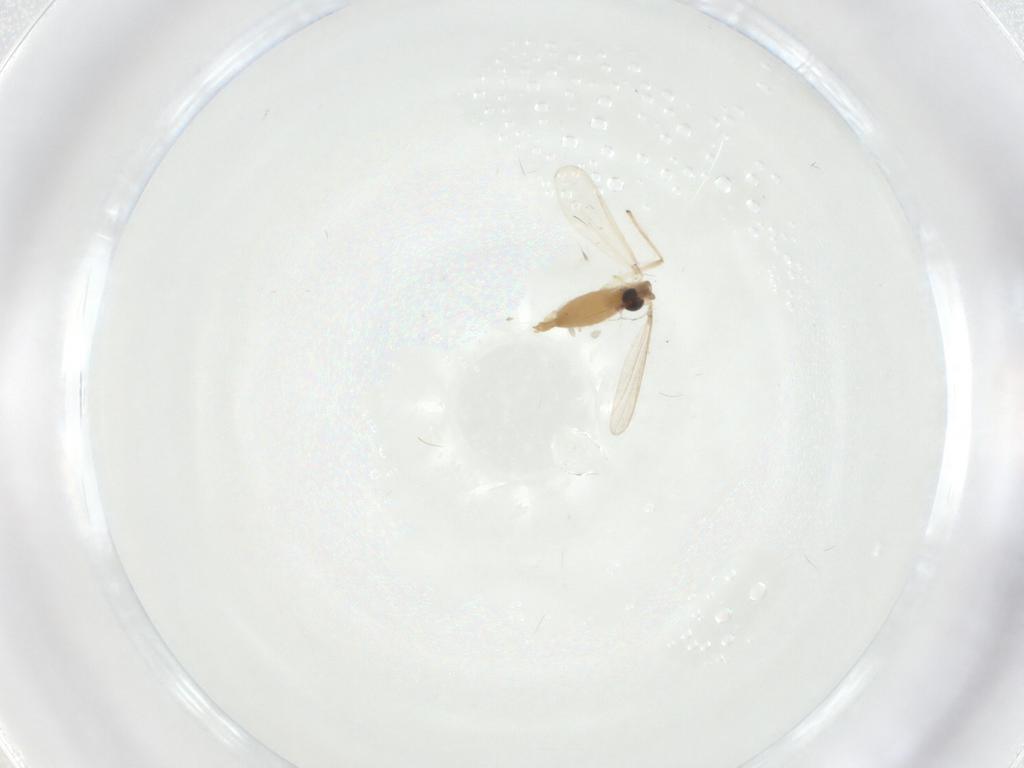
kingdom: Animalia
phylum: Arthropoda
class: Insecta
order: Diptera
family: Chironomidae
